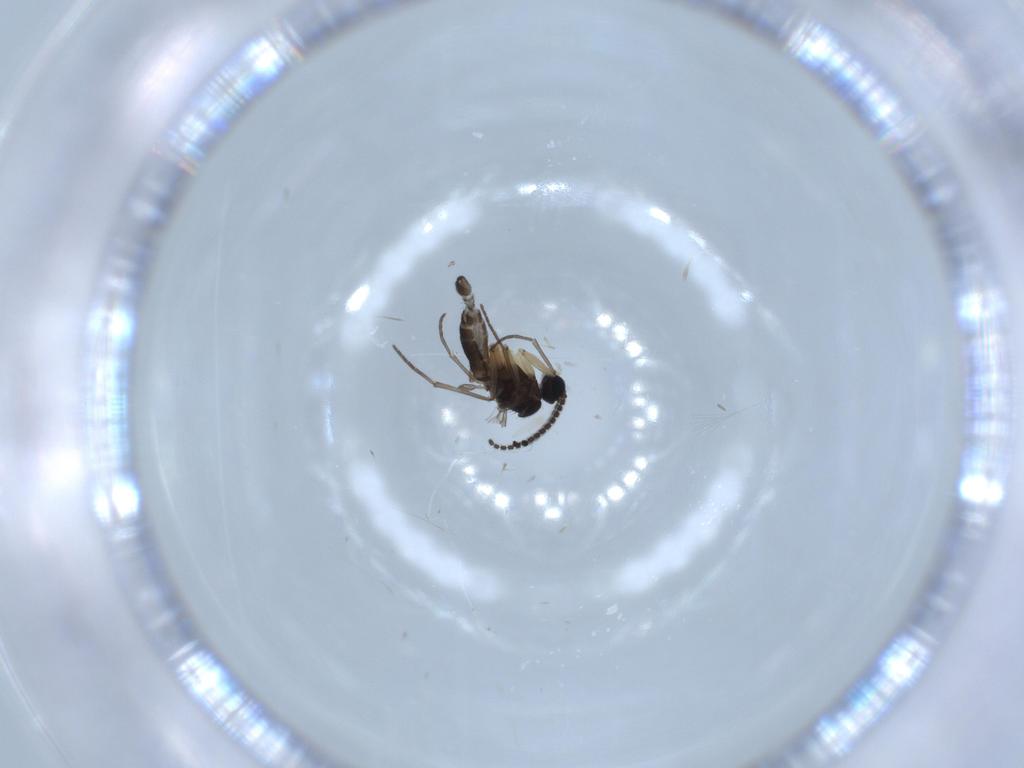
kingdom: Animalia
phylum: Arthropoda
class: Insecta
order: Diptera
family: Sciaridae
